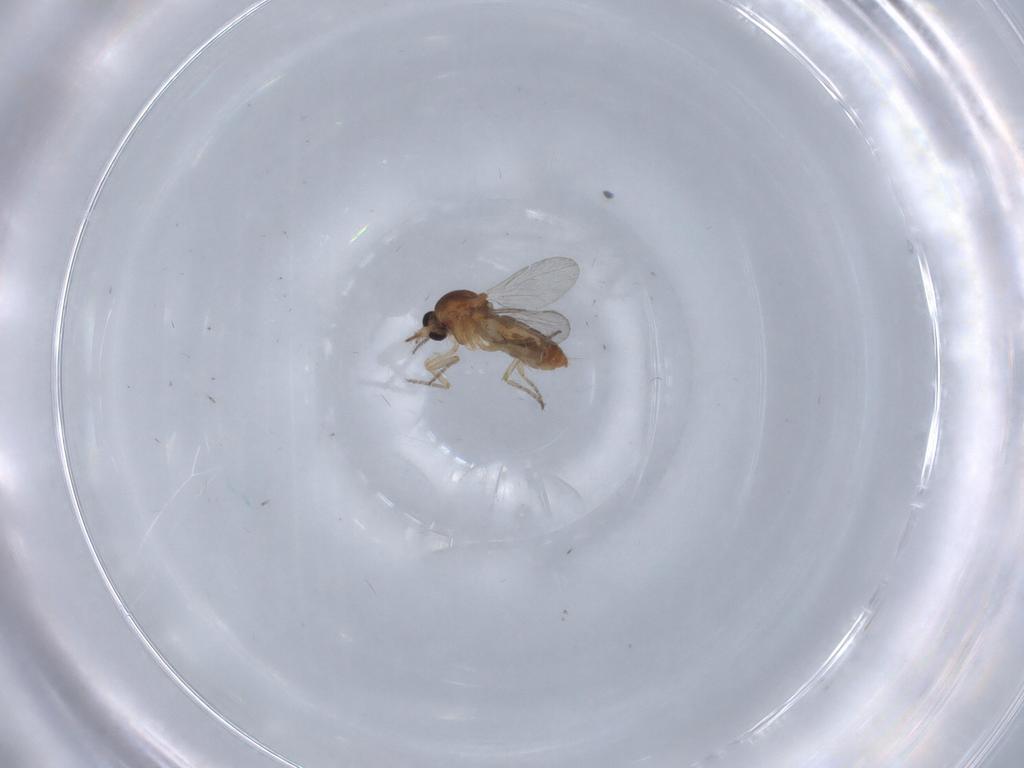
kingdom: Animalia
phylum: Arthropoda
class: Insecta
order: Diptera
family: Ceratopogonidae
